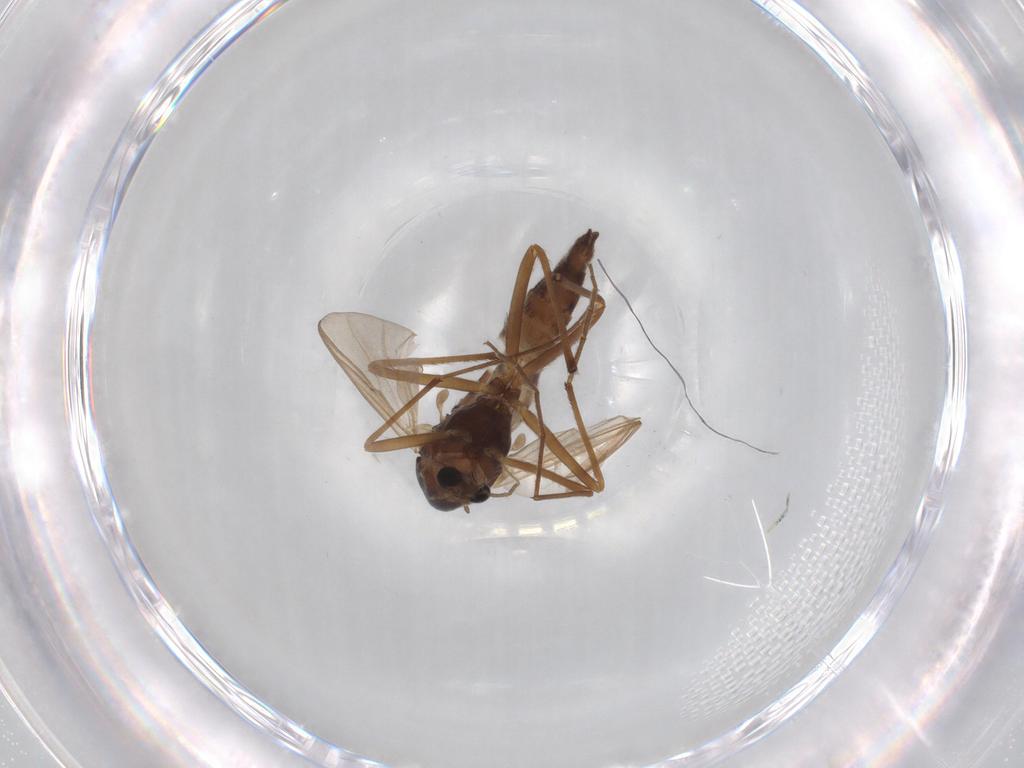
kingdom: Animalia
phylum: Arthropoda
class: Insecta
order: Diptera
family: Chironomidae
